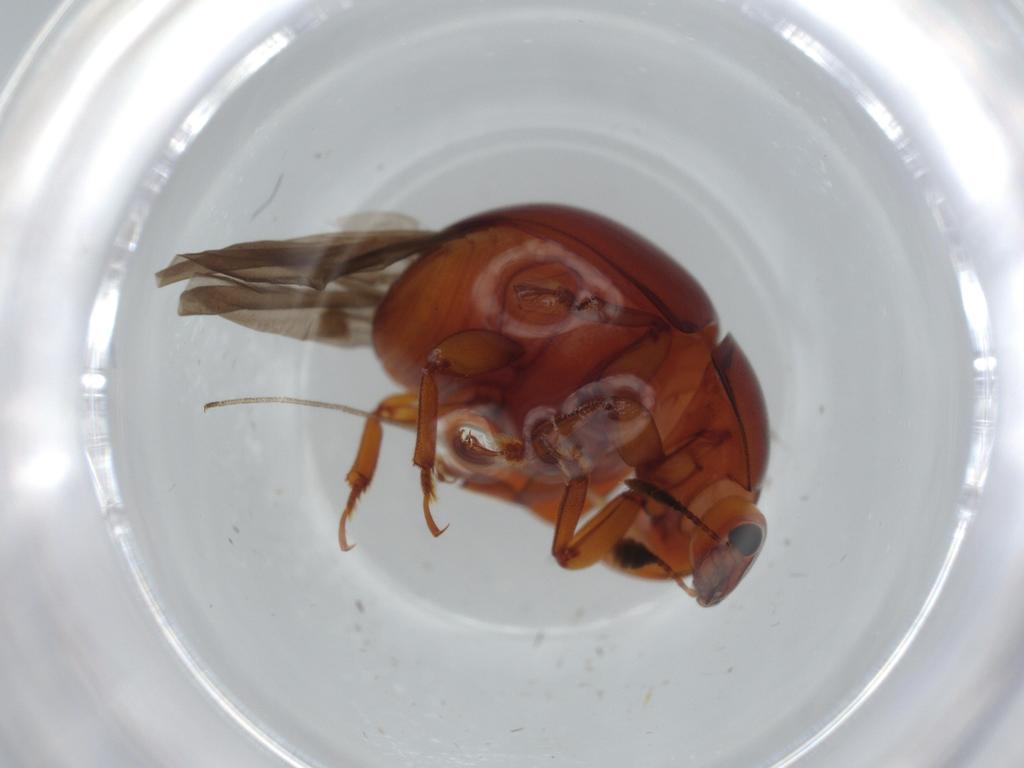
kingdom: Animalia
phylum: Arthropoda
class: Insecta
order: Coleoptera
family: Nitidulidae
